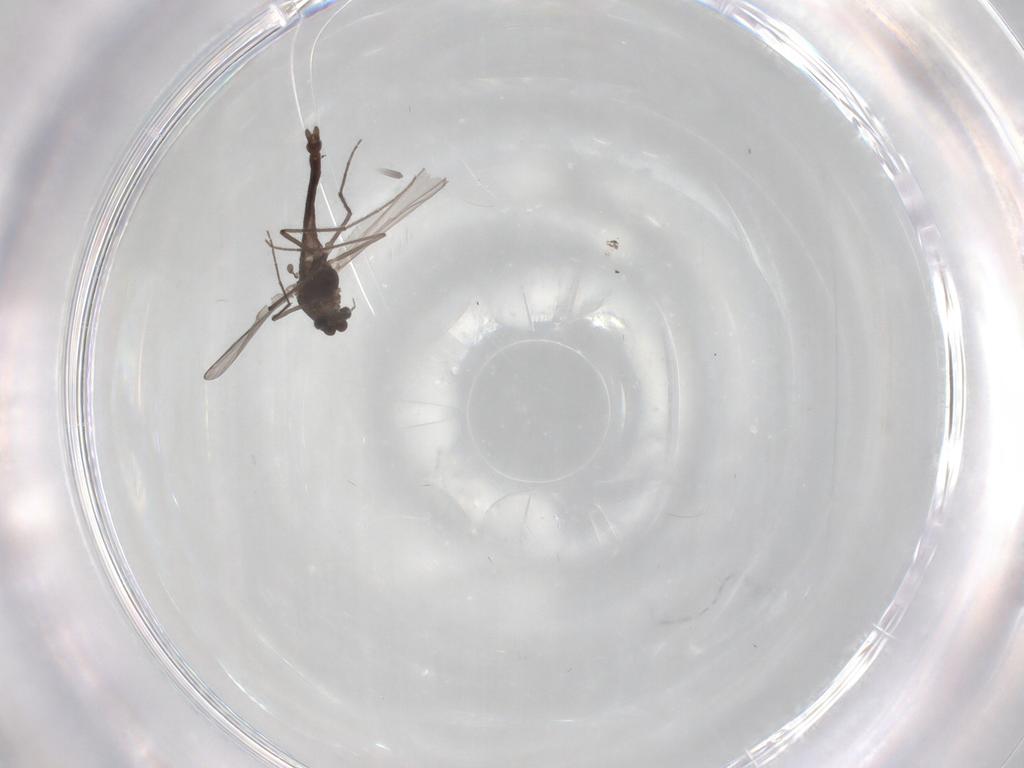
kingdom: Animalia
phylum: Arthropoda
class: Insecta
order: Diptera
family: Chironomidae
